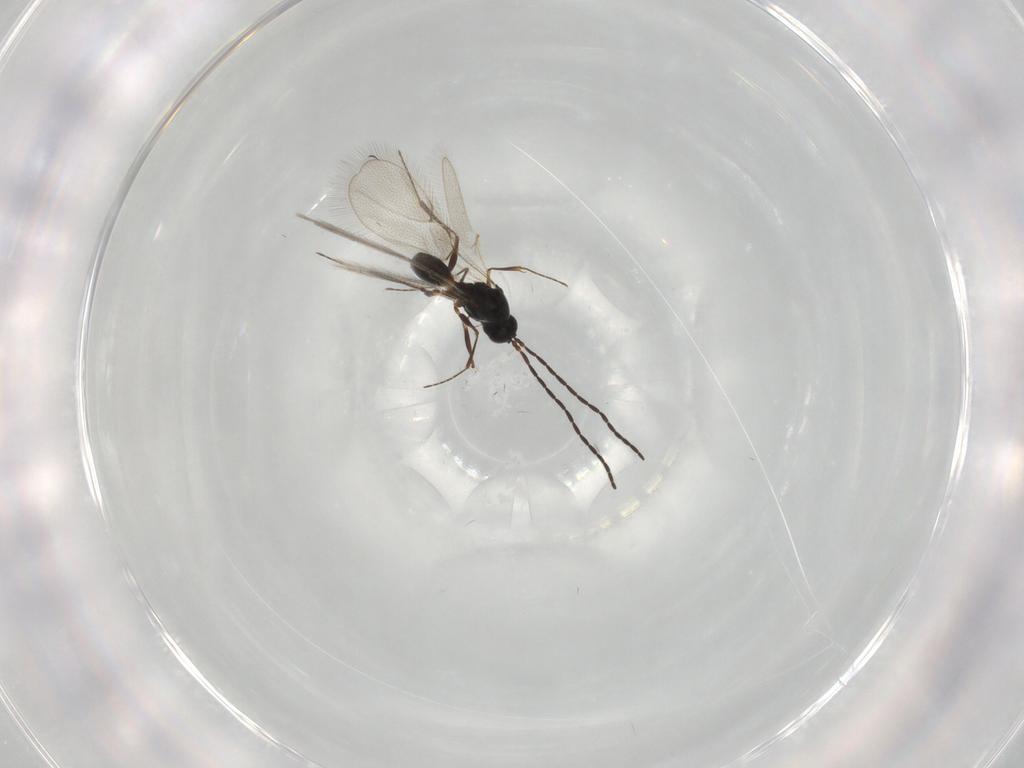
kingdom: Animalia
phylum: Arthropoda
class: Insecta
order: Hymenoptera
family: Figitidae
